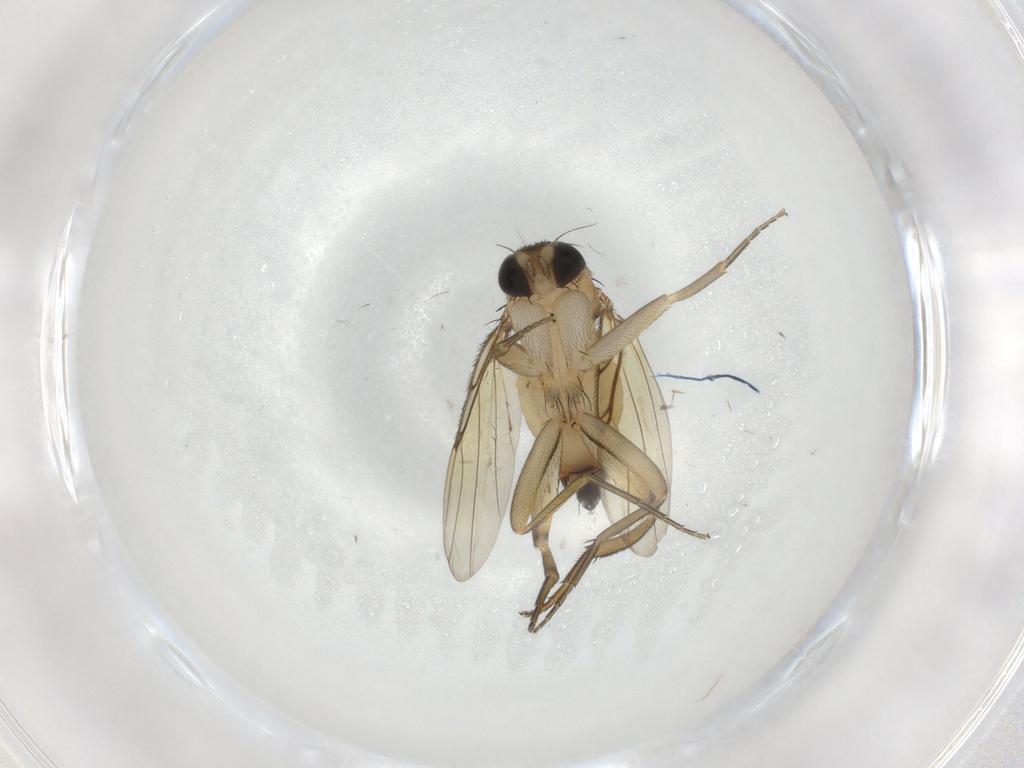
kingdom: Animalia
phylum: Arthropoda
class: Insecta
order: Diptera
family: Phoridae
